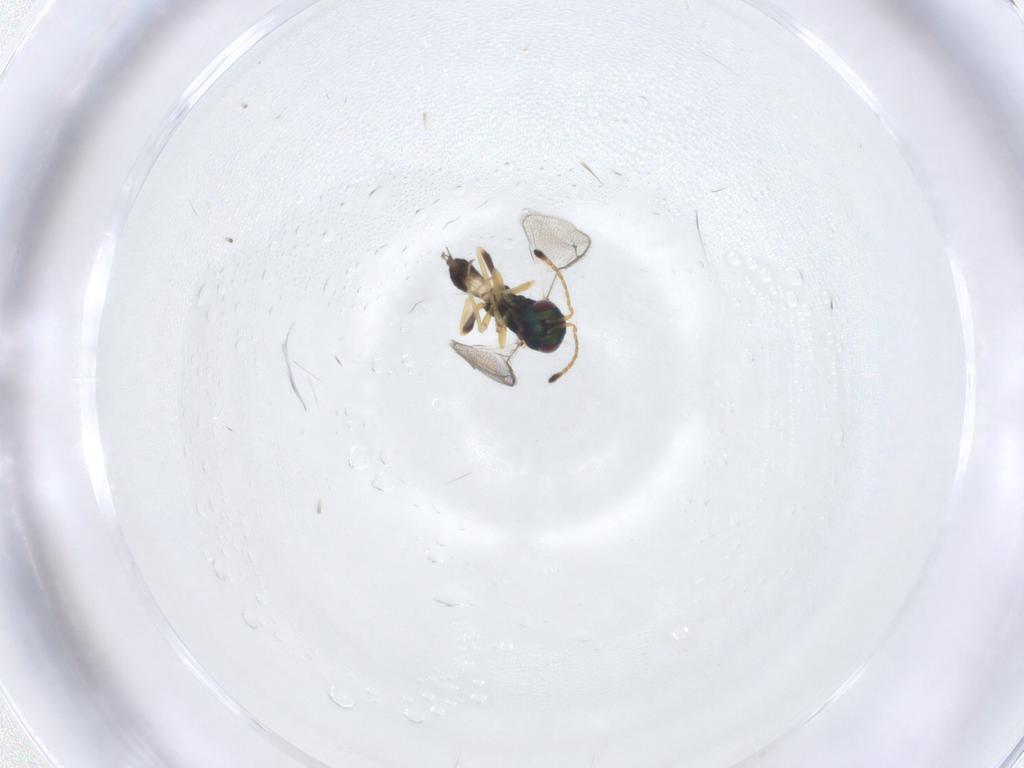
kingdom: Animalia
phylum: Arthropoda
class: Insecta
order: Hymenoptera
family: Pteromalidae
